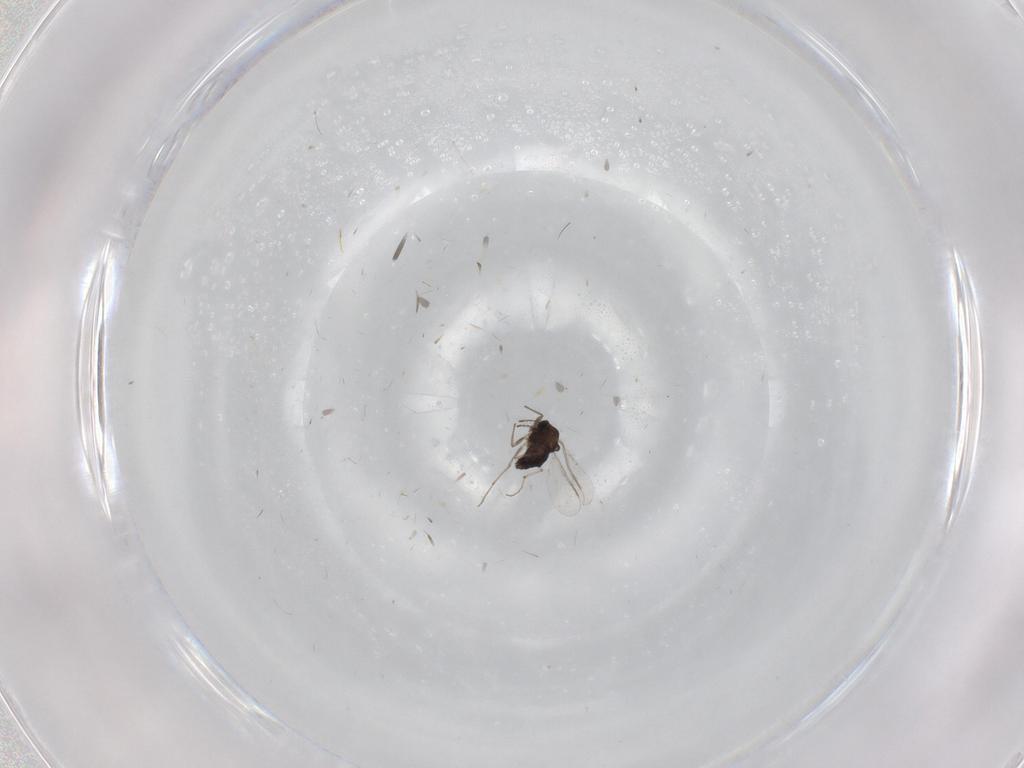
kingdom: Animalia
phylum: Arthropoda
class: Insecta
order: Diptera
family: Chironomidae
